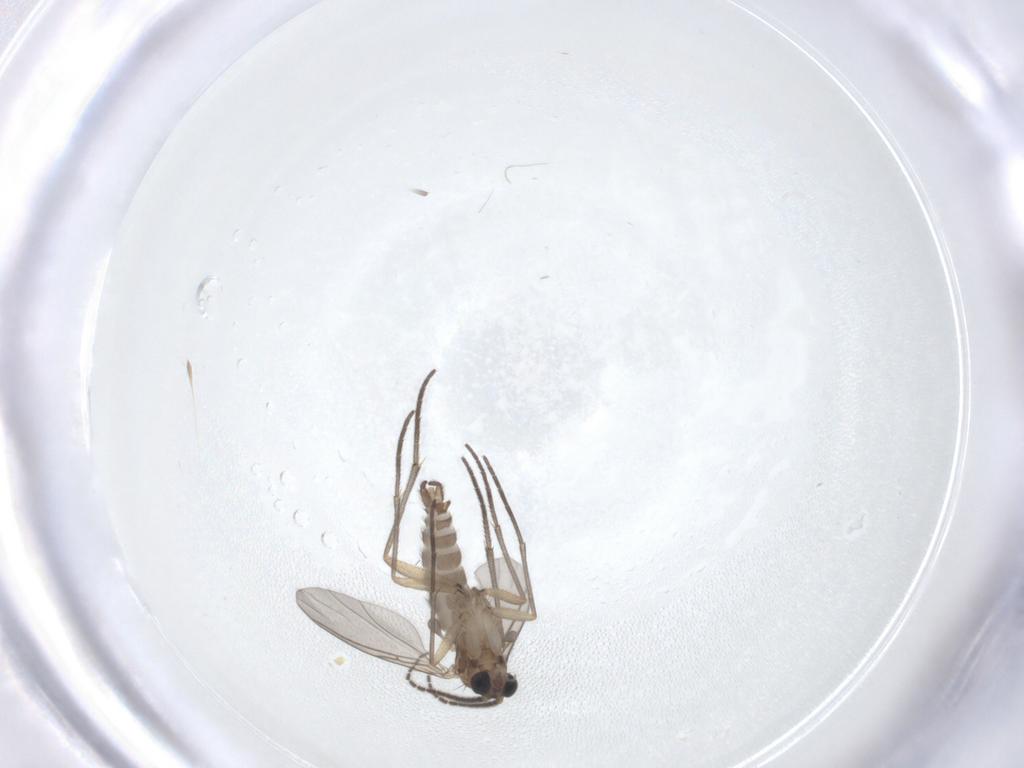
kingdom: Animalia
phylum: Arthropoda
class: Insecta
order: Diptera
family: Sciaridae
